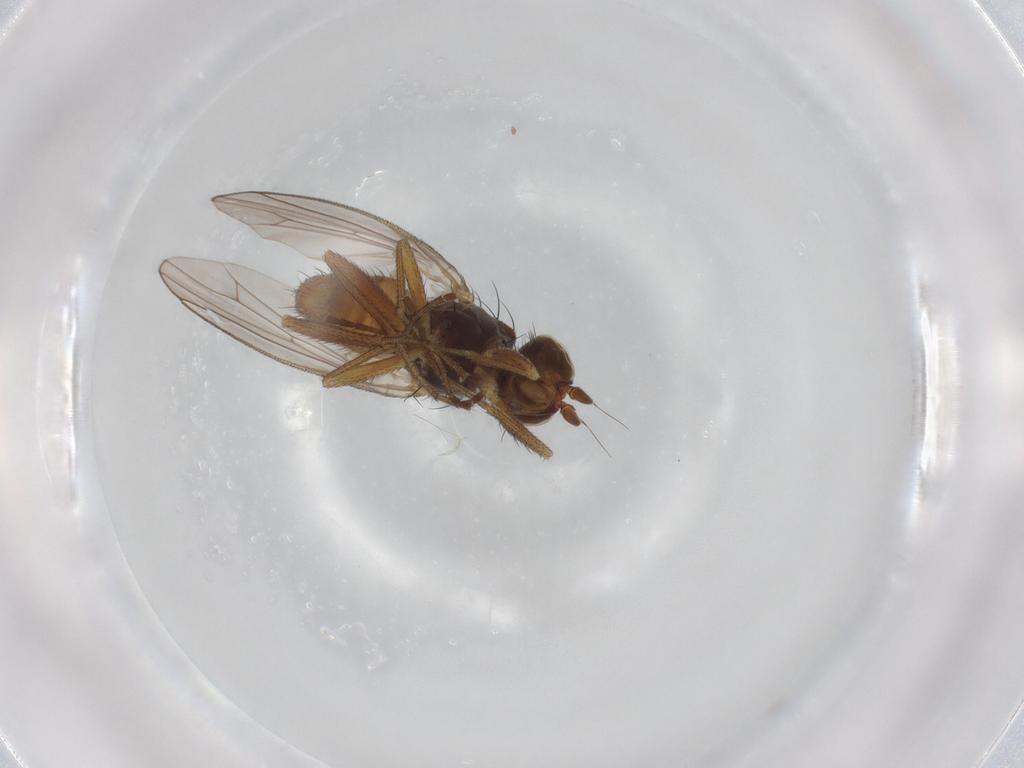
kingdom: Animalia
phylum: Arthropoda
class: Insecta
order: Diptera
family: Heleomyzidae
